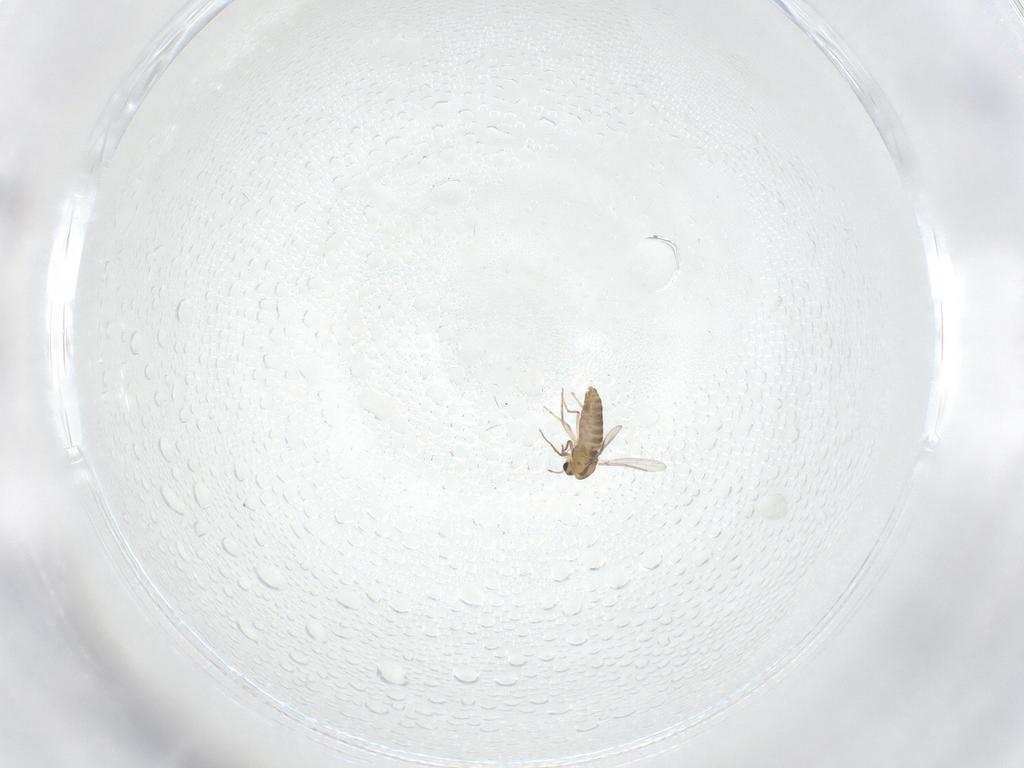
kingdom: Animalia
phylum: Arthropoda
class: Insecta
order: Diptera
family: Chironomidae
